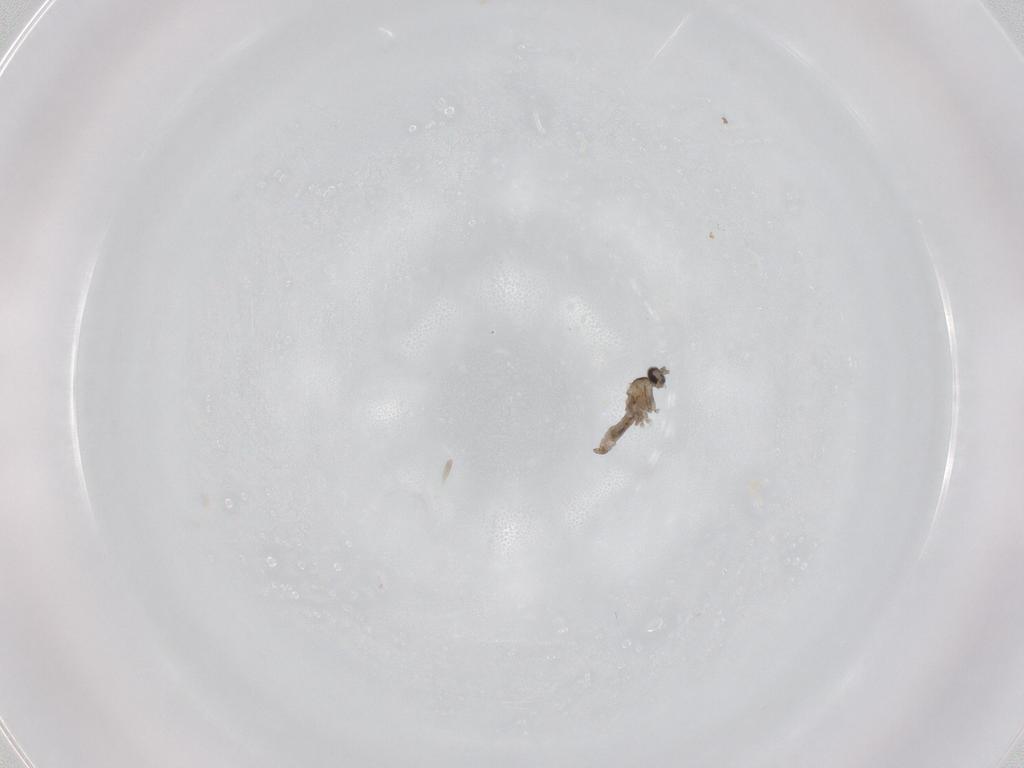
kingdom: Animalia
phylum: Arthropoda
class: Insecta
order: Diptera
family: Cecidomyiidae
